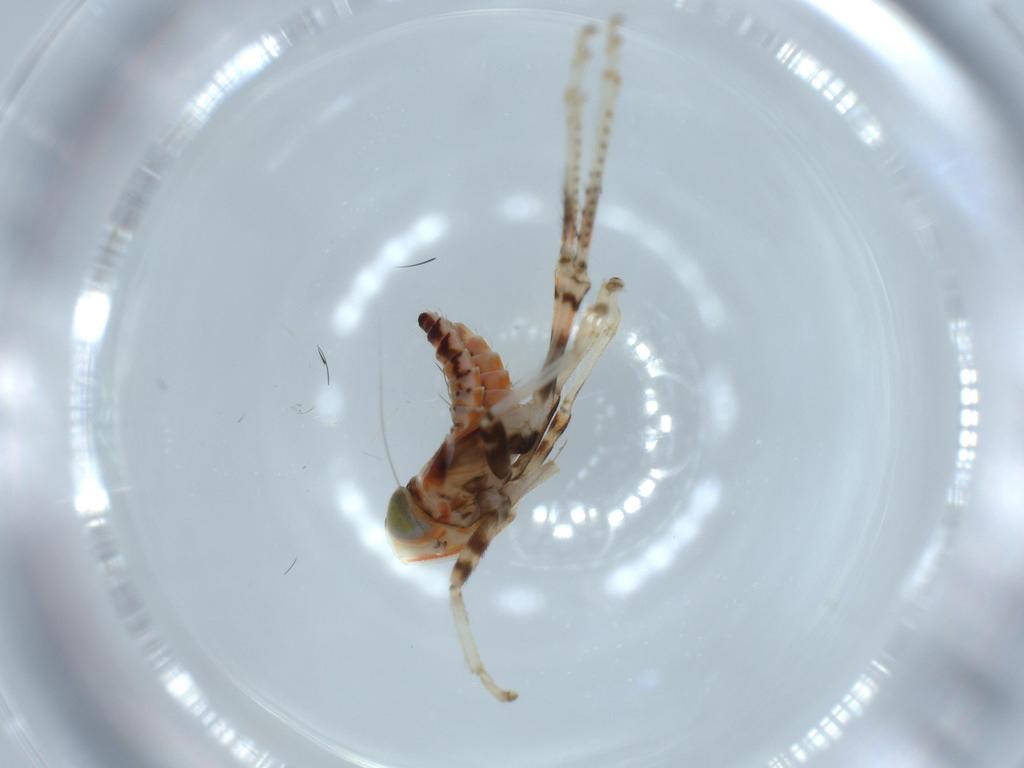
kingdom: Animalia
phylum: Arthropoda
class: Insecta
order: Hemiptera
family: Cicadellidae
